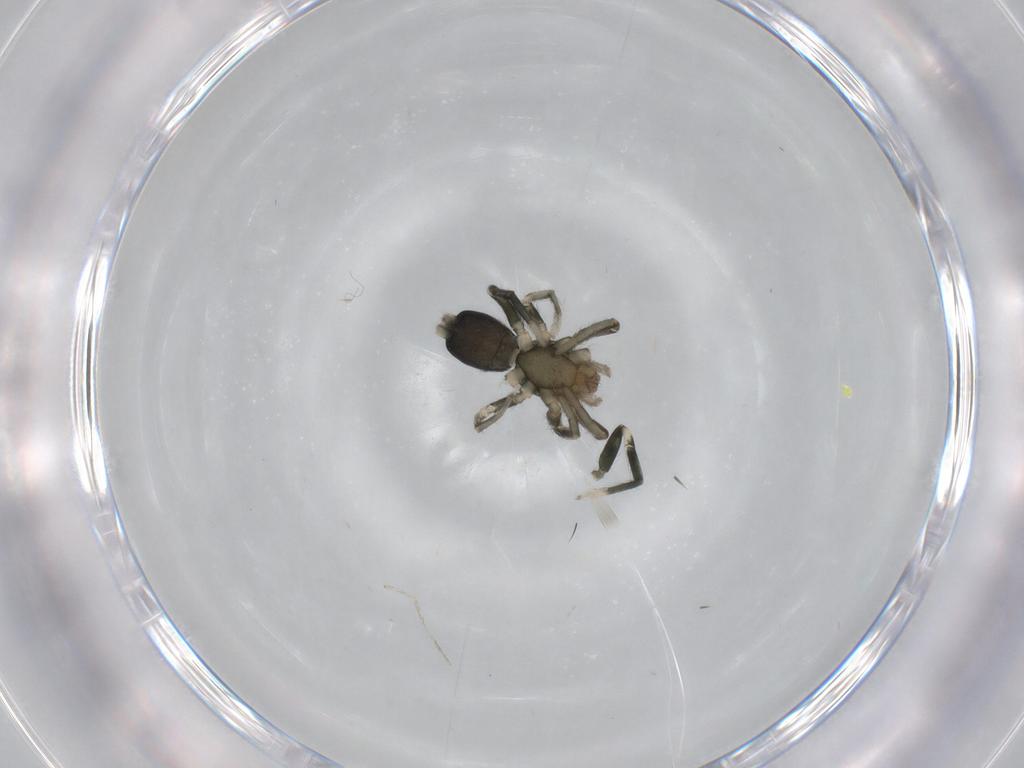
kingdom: Animalia
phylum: Arthropoda
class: Arachnida
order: Araneae
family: Gnaphosidae
